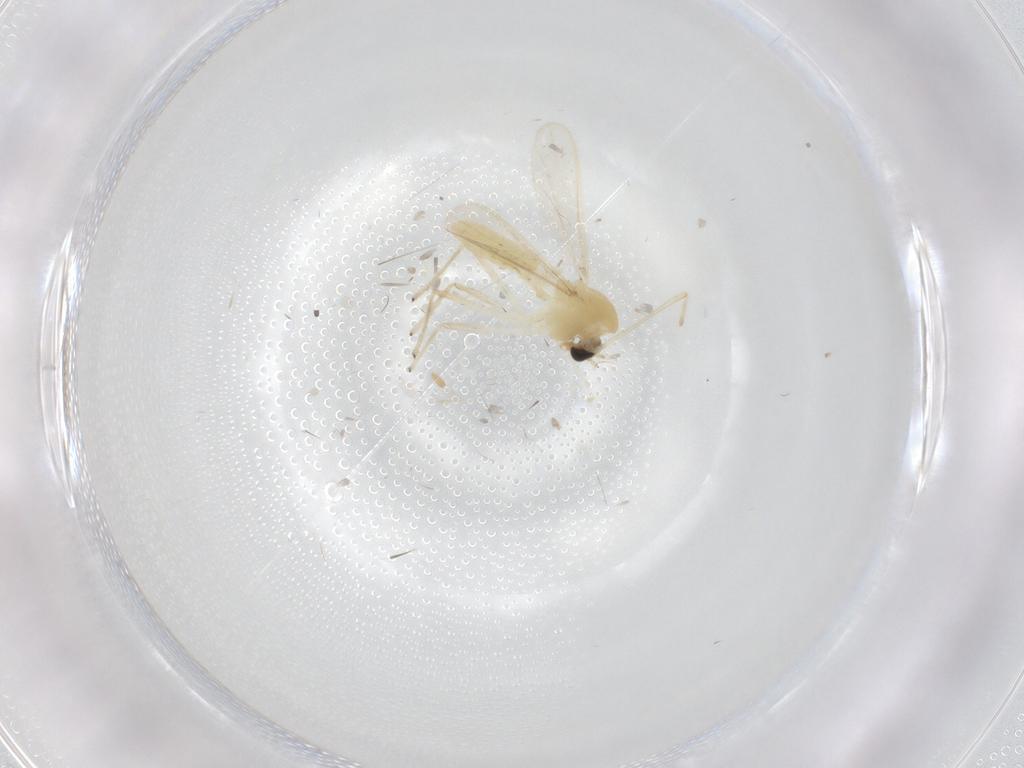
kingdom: Animalia
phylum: Arthropoda
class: Insecta
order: Diptera
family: Chironomidae
